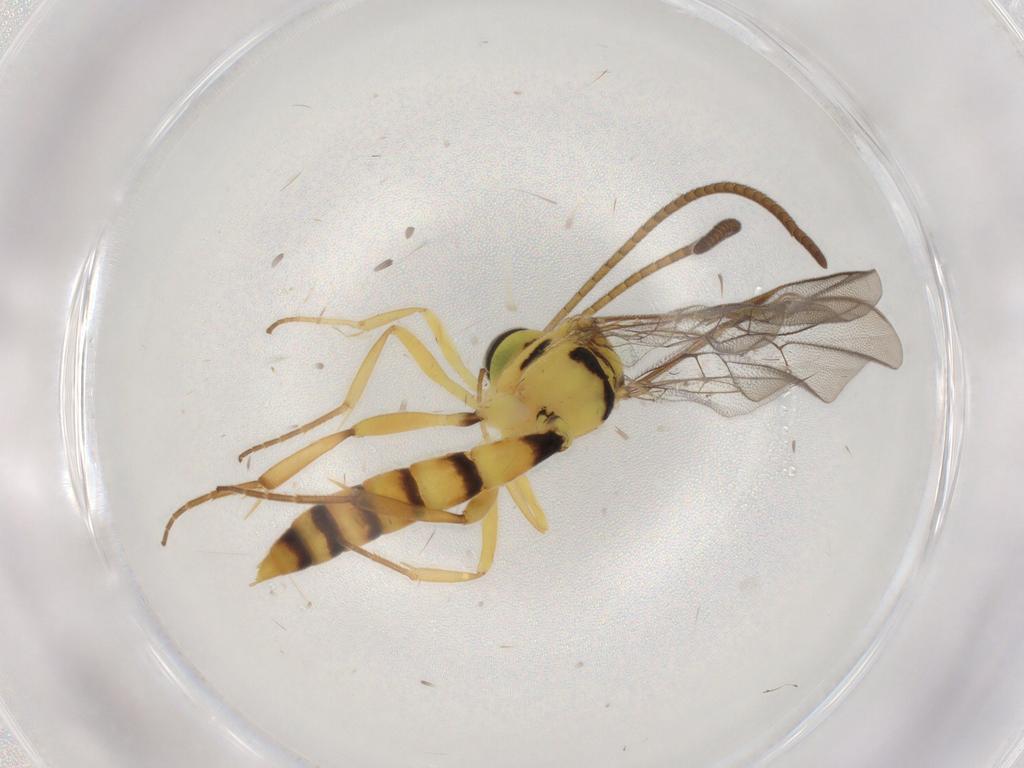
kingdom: Animalia
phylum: Arthropoda
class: Insecta
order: Hymenoptera
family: Ichneumonidae
